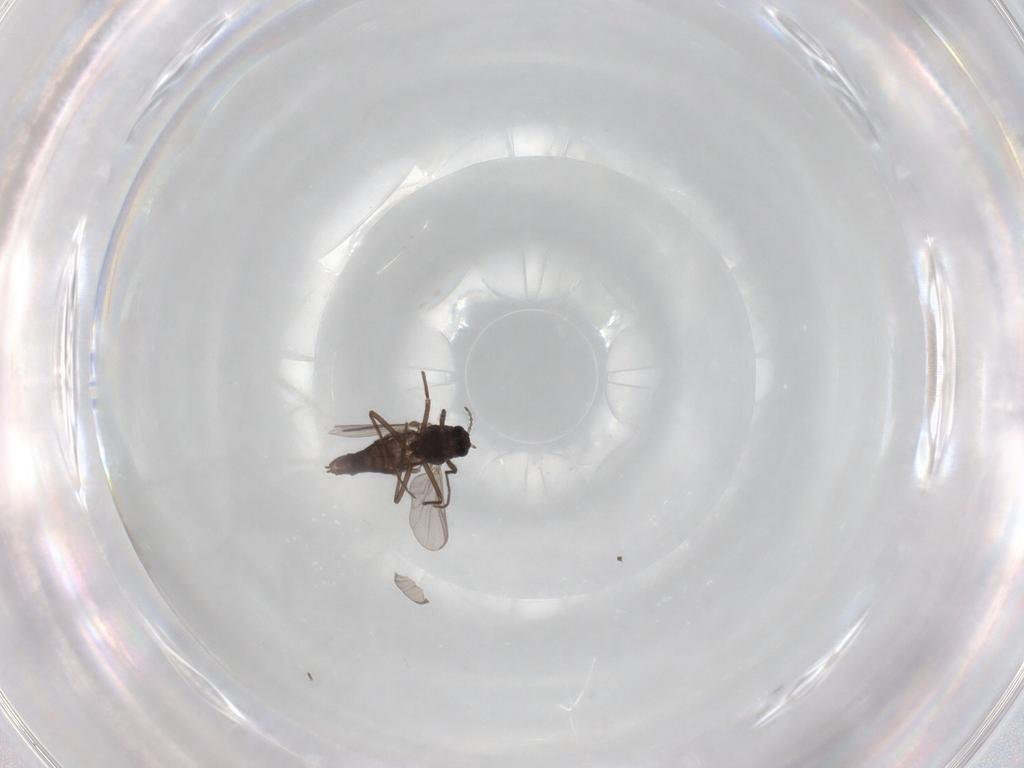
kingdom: Animalia
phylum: Arthropoda
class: Insecta
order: Diptera
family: Chironomidae
